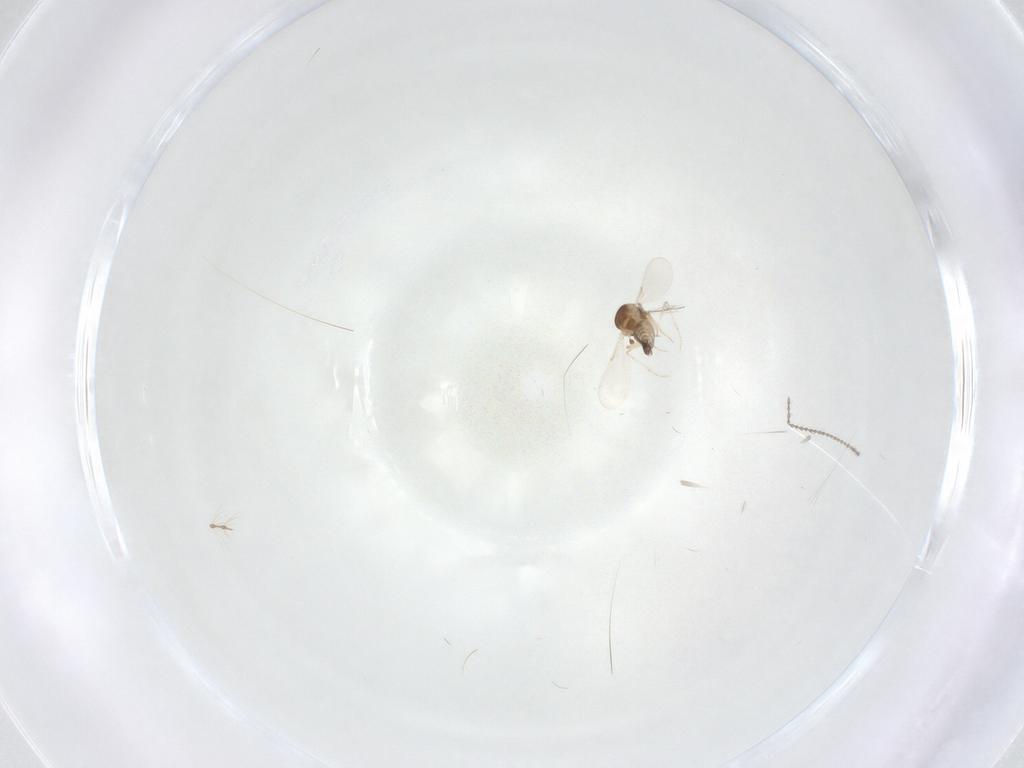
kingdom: Animalia
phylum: Arthropoda
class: Insecta
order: Diptera
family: Ceratopogonidae
